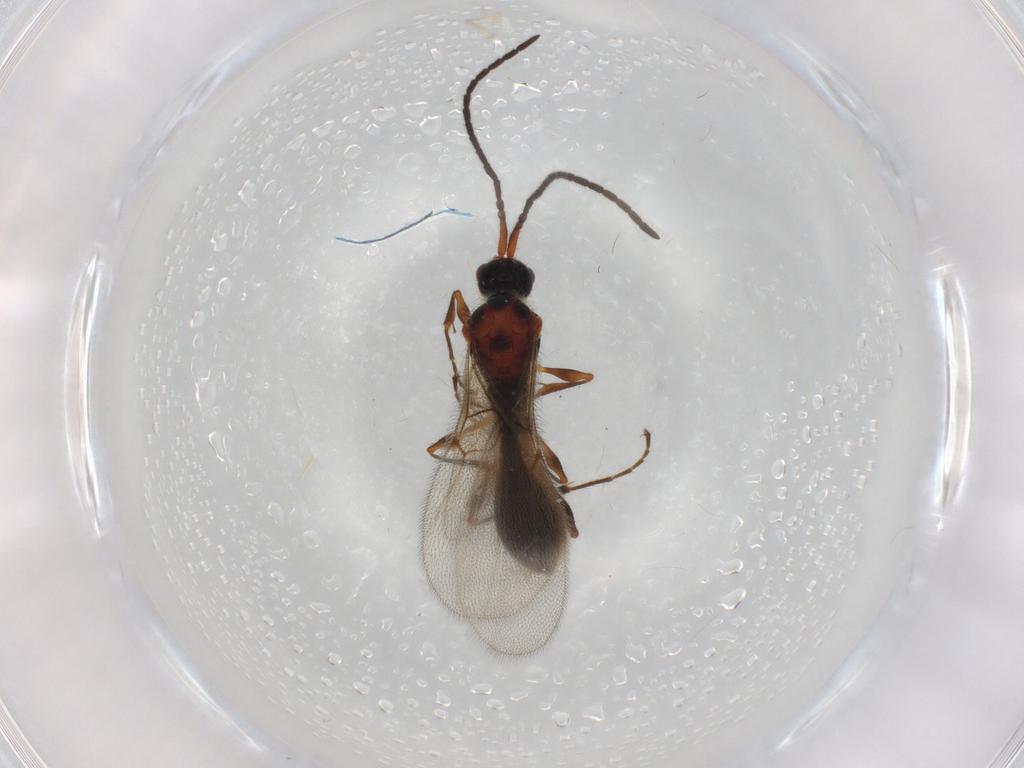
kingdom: Animalia
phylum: Arthropoda
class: Insecta
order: Hymenoptera
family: Diapriidae
